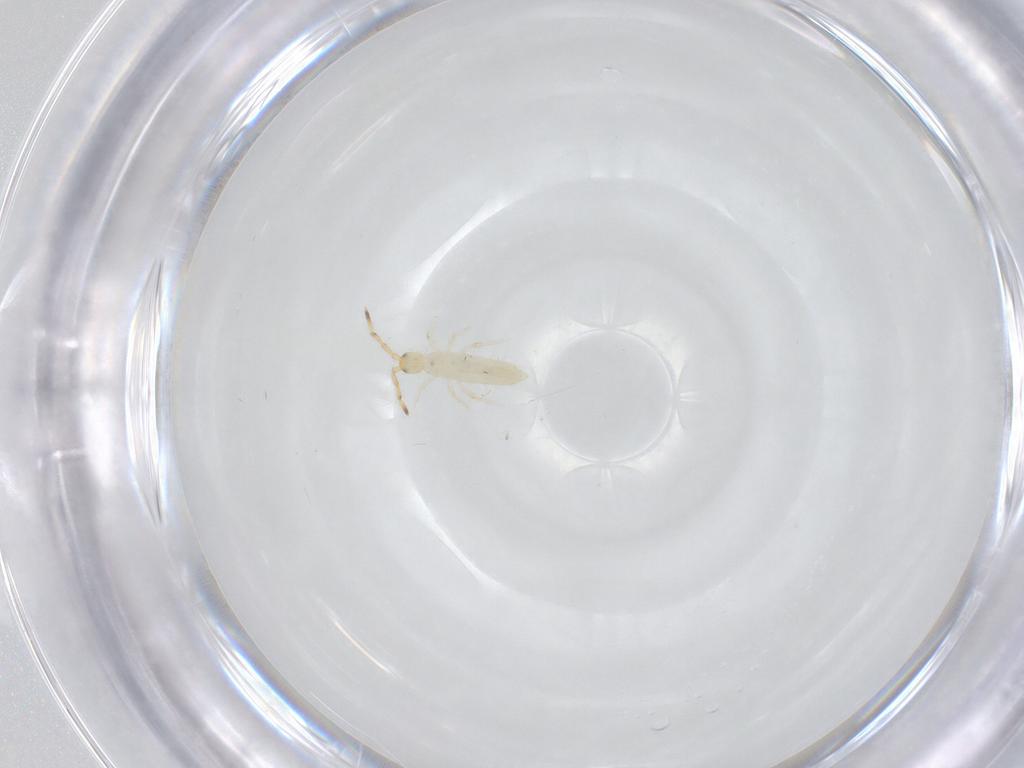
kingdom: Animalia
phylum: Arthropoda
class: Collembola
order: Entomobryomorpha
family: Entomobryidae
